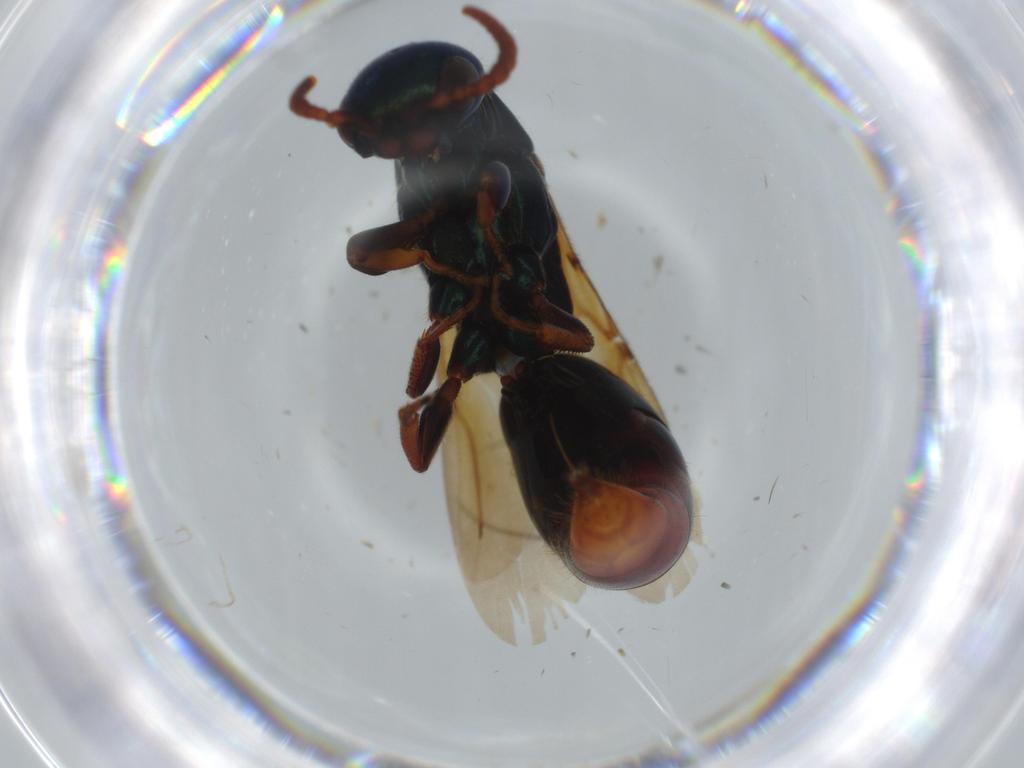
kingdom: Animalia
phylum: Arthropoda
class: Insecta
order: Hymenoptera
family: Bethylidae
